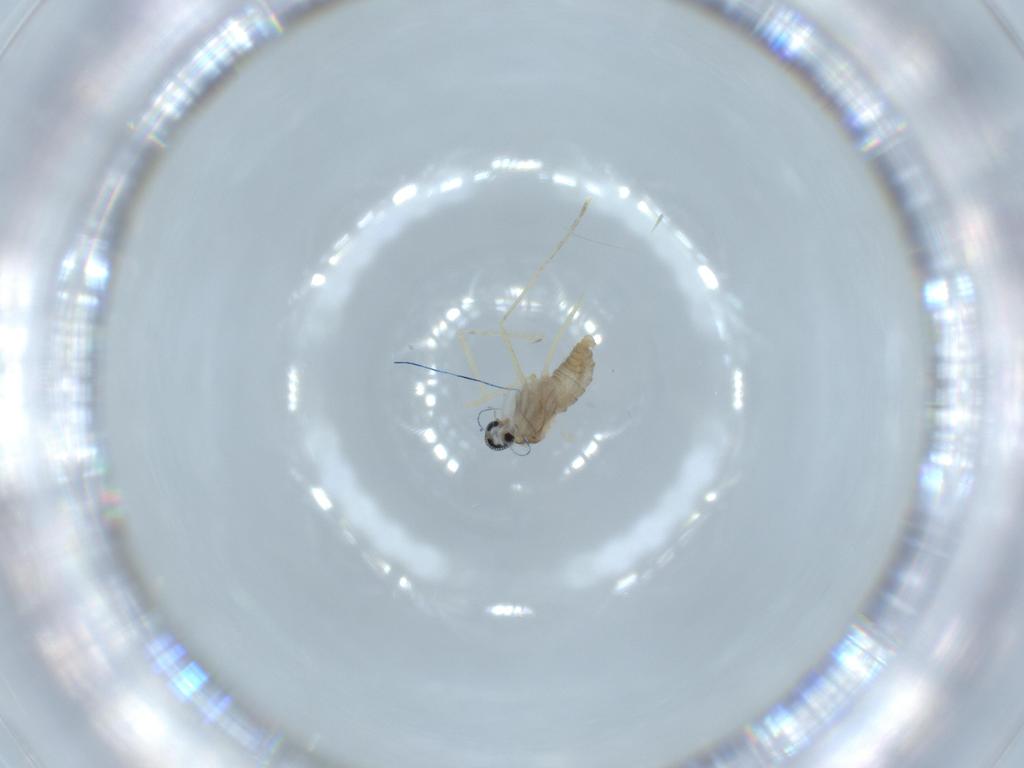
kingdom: Animalia
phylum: Arthropoda
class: Insecta
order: Diptera
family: Cecidomyiidae
